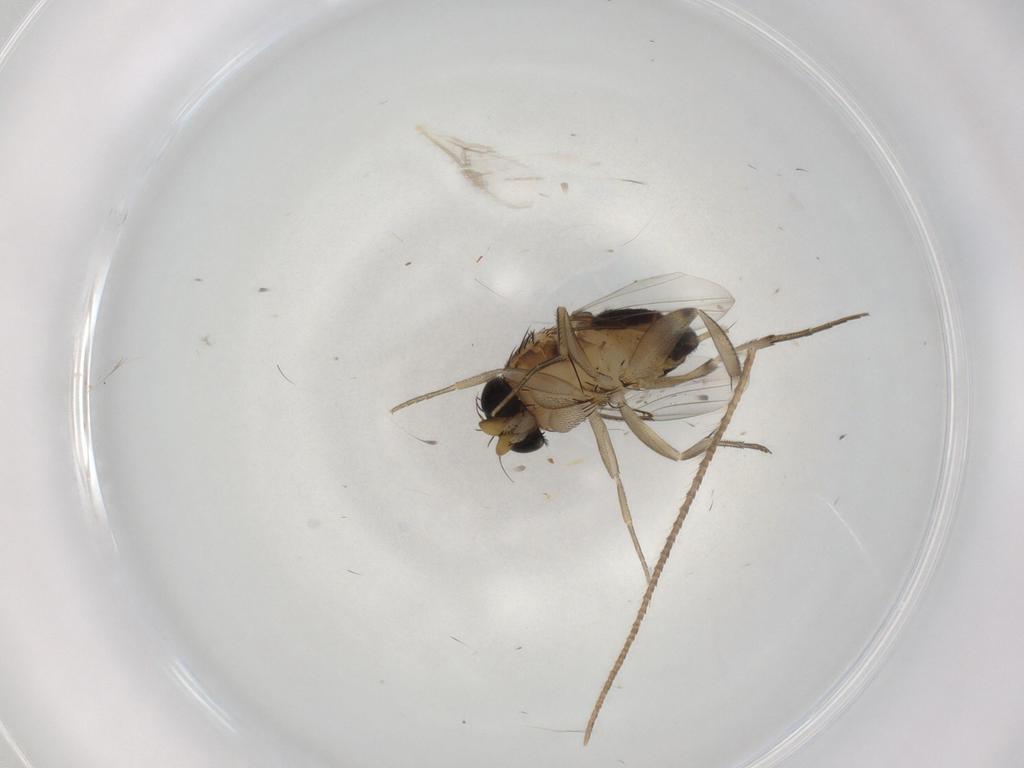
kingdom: Animalia
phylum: Arthropoda
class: Insecta
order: Diptera
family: Phoridae
